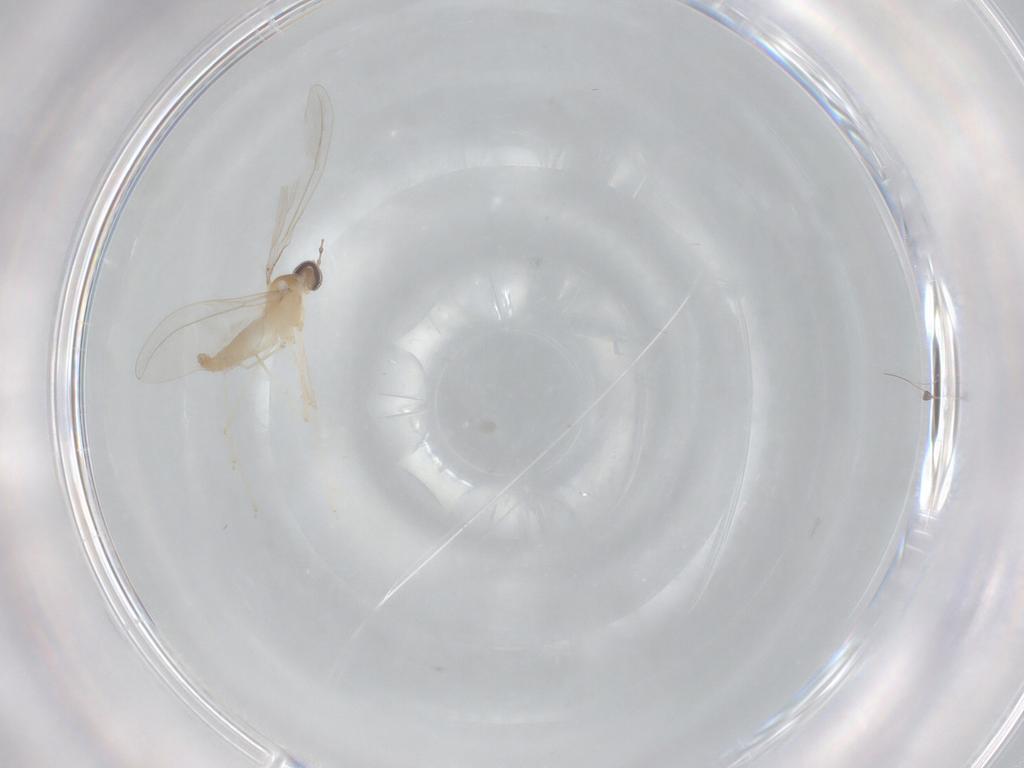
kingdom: Animalia
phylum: Arthropoda
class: Insecta
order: Diptera
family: Cecidomyiidae
